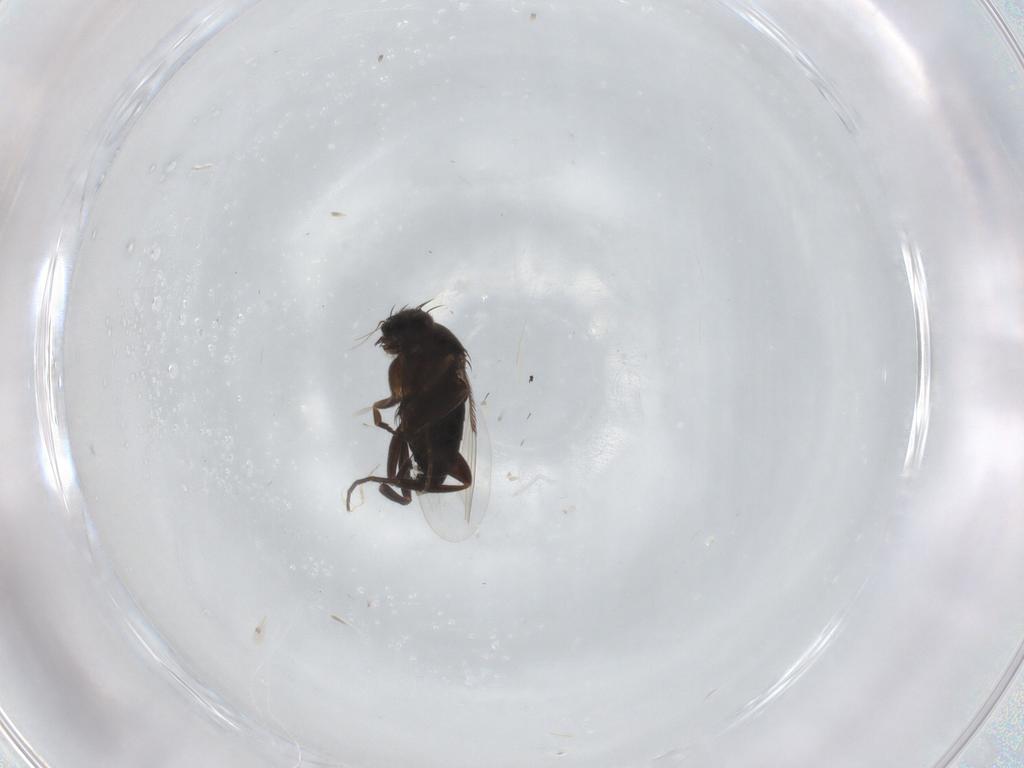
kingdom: Animalia
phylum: Arthropoda
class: Insecta
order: Diptera
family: Phoridae
